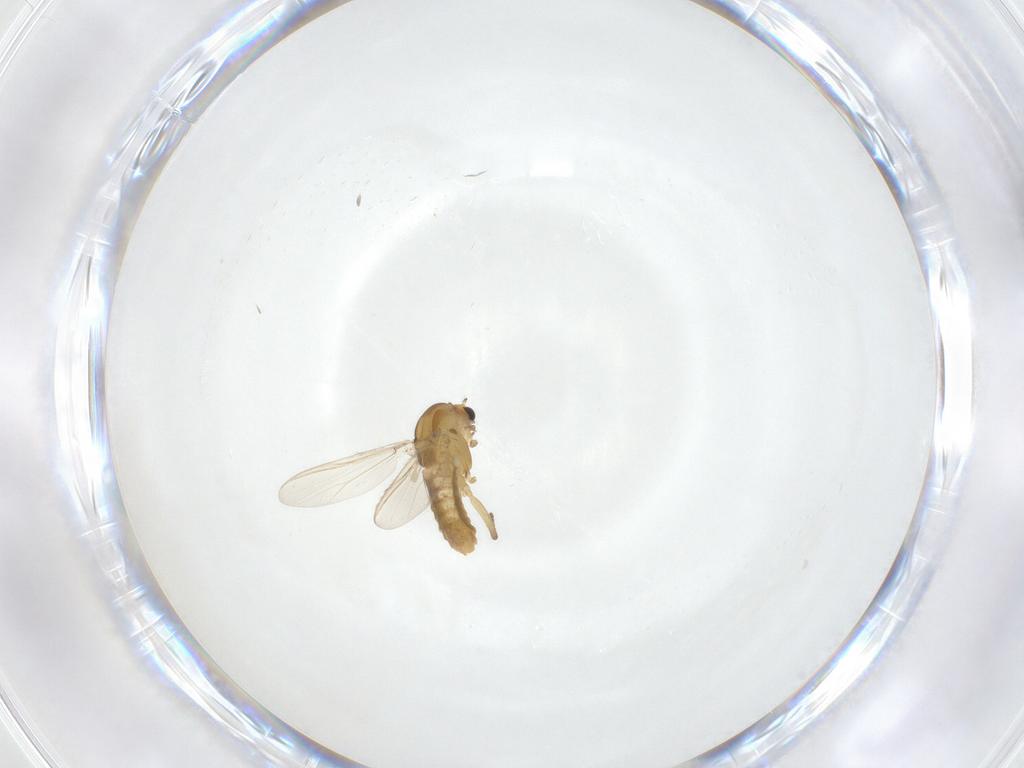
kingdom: Animalia
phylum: Arthropoda
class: Insecta
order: Diptera
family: Chironomidae
